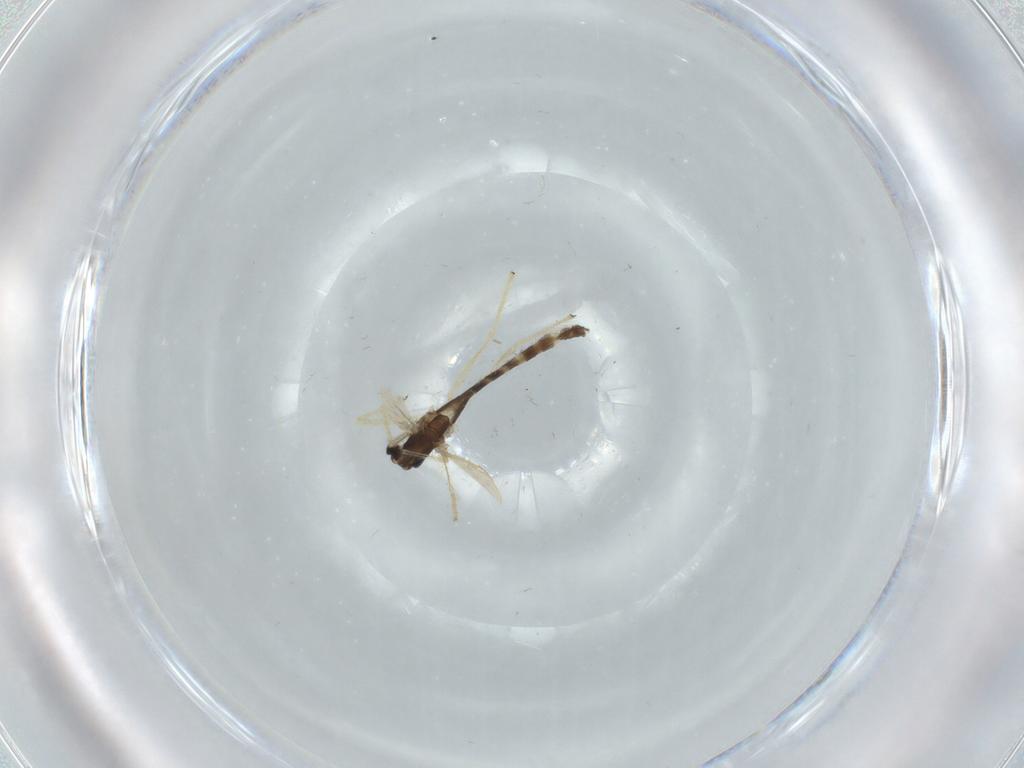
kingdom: Animalia
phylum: Arthropoda
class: Insecta
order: Diptera
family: Chironomidae
